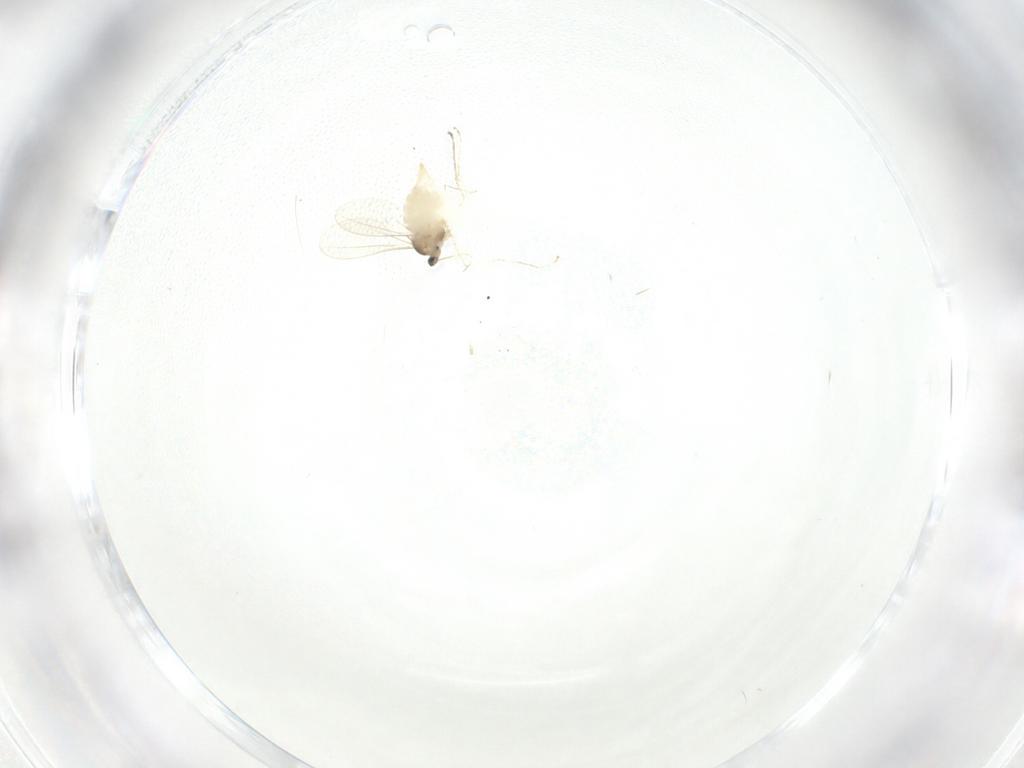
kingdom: Animalia
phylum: Arthropoda
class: Insecta
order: Diptera
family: Cecidomyiidae
